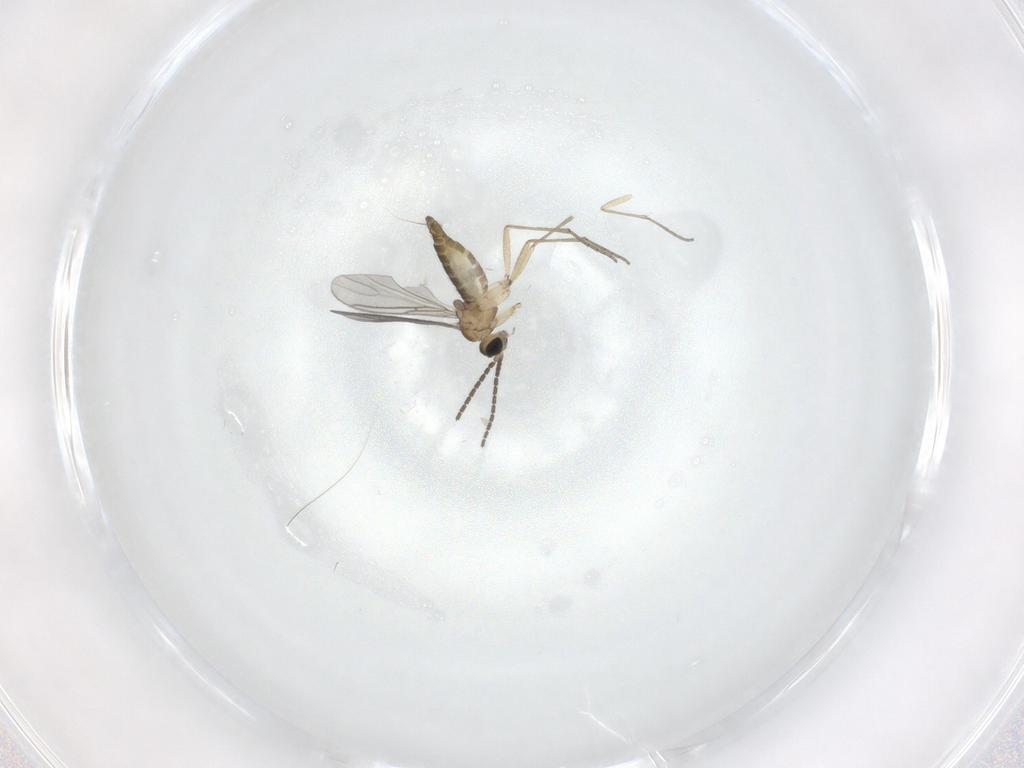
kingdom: Animalia
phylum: Arthropoda
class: Insecta
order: Diptera
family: Sciaridae
